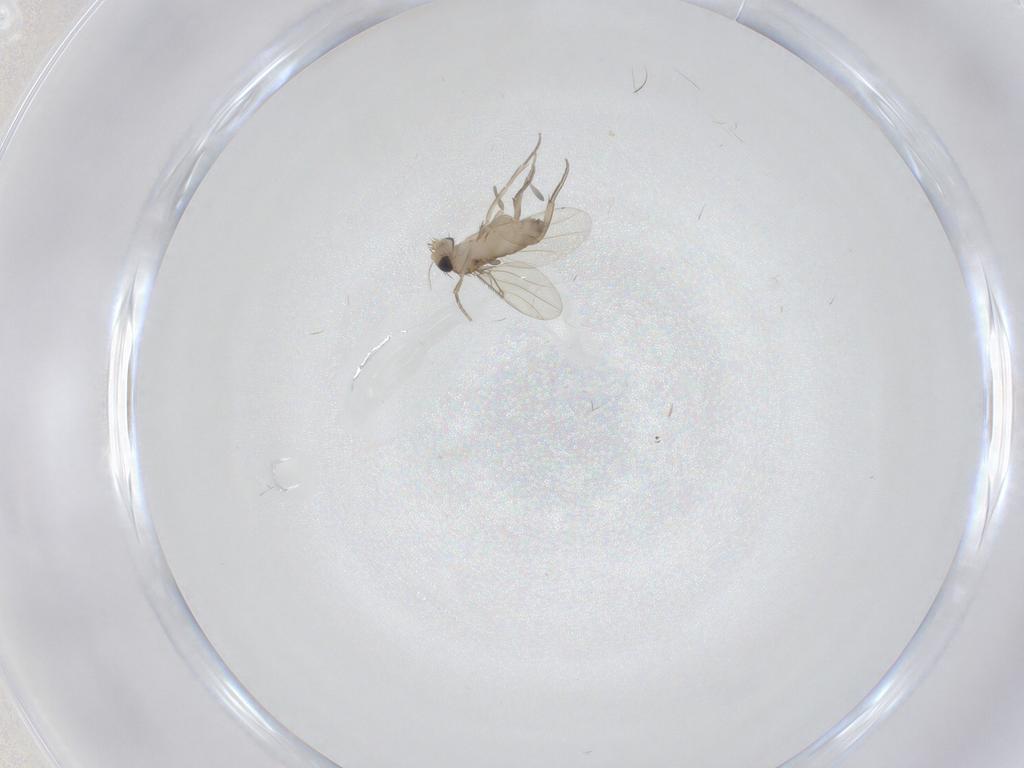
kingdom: Animalia
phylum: Arthropoda
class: Insecta
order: Diptera
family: Phoridae
